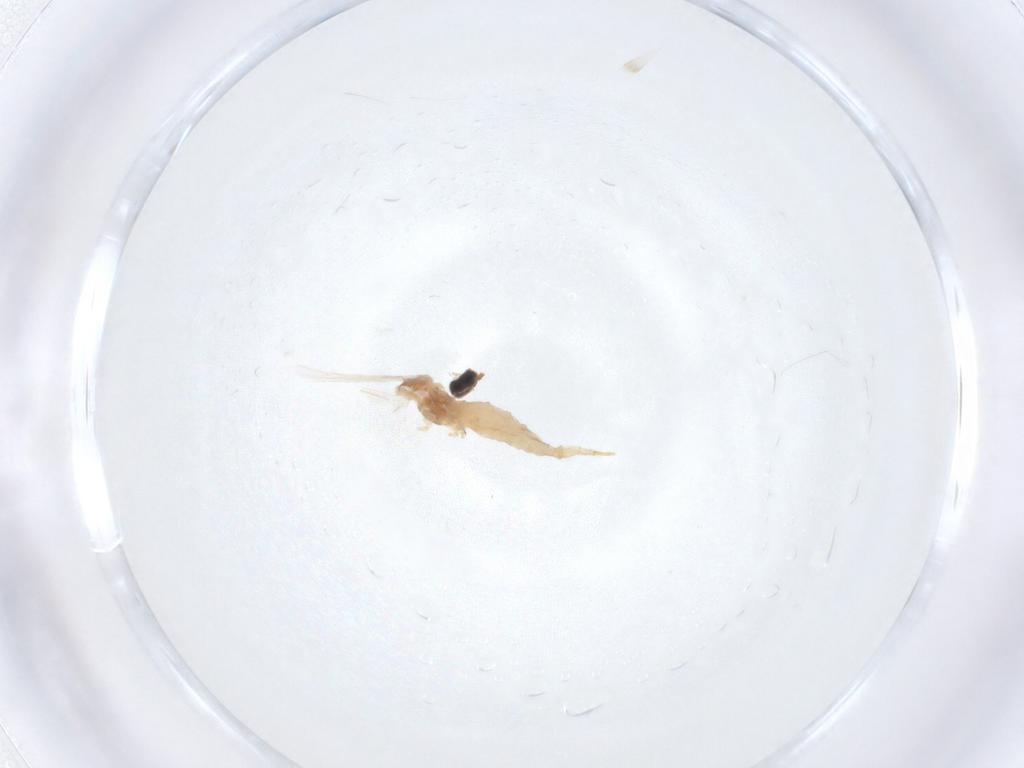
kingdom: Animalia
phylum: Arthropoda
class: Insecta
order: Diptera
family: Cecidomyiidae
